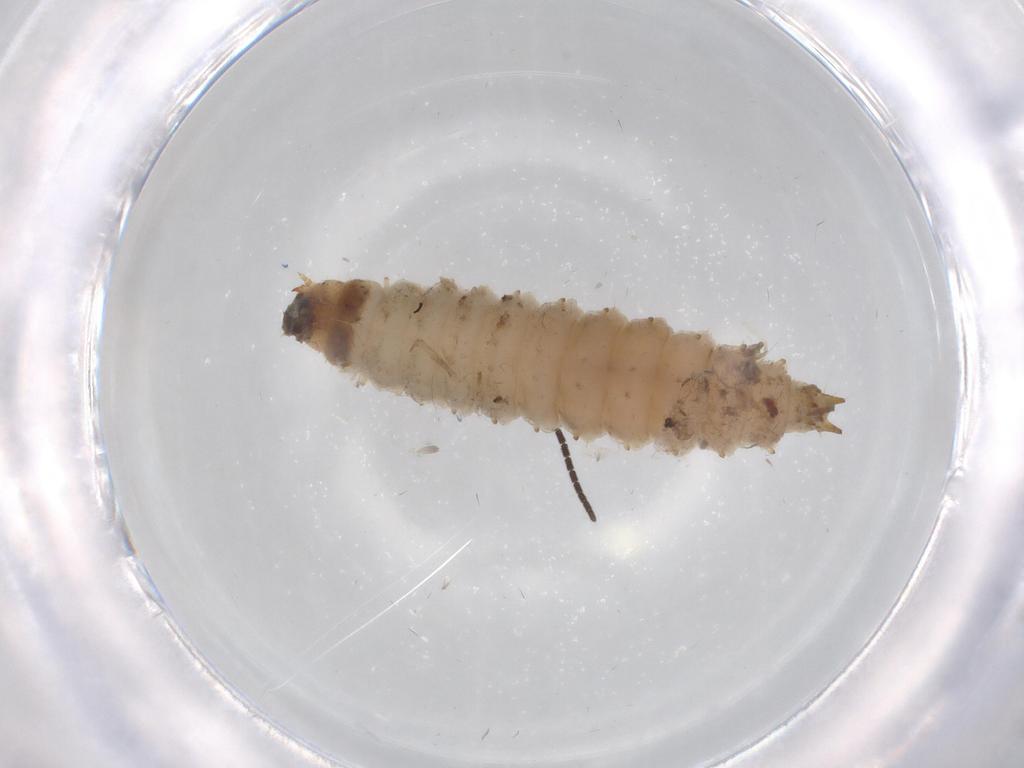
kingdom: Animalia
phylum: Arthropoda
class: Insecta
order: Coleoptera
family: Nitidulidae
